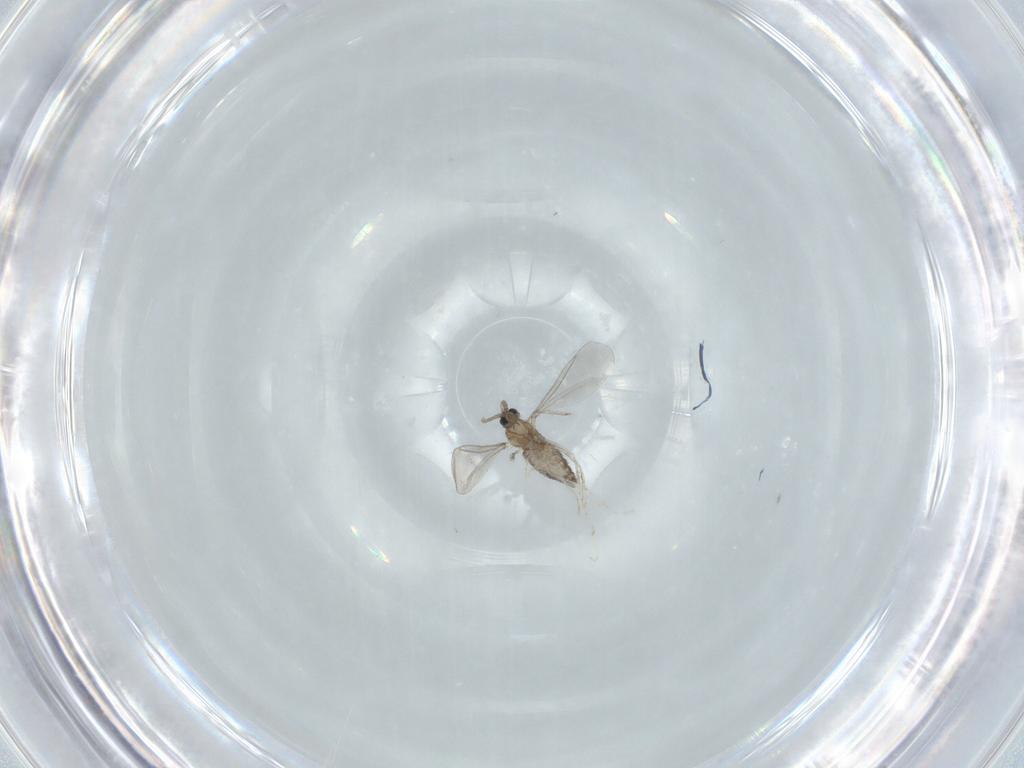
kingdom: Animalia
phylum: Arthropoda
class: Insecta
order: Diptera
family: Cecidomyiidae
